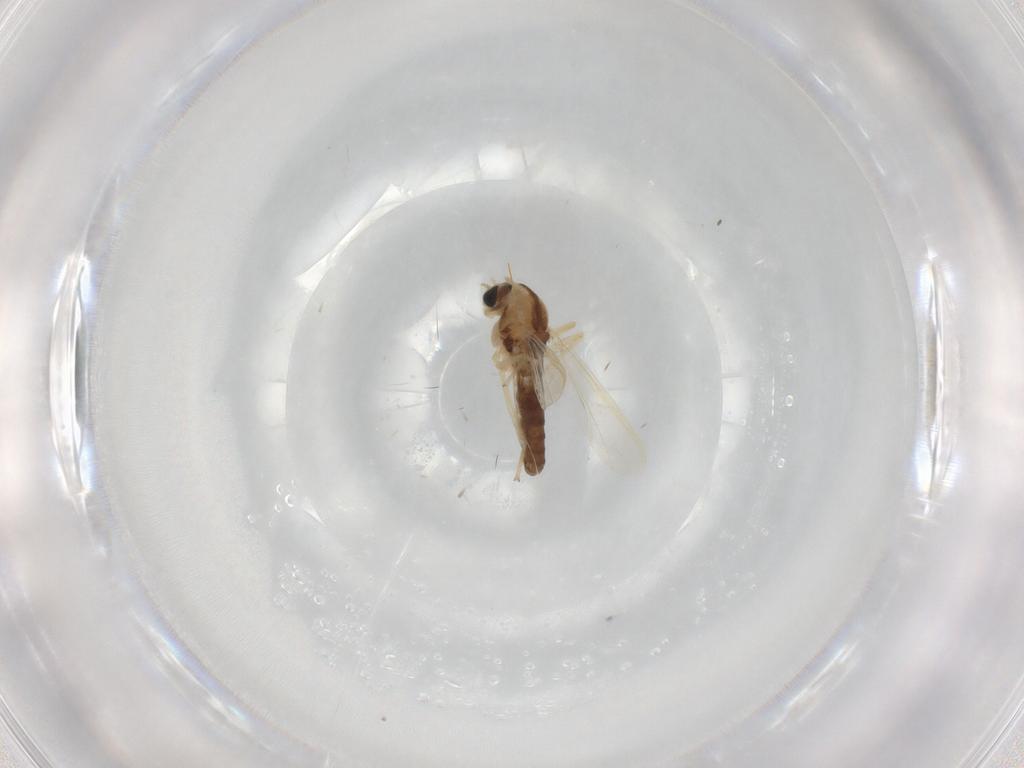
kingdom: Animalia
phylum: Arthropoda
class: Insecta
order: Diptera
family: Chironomidae
